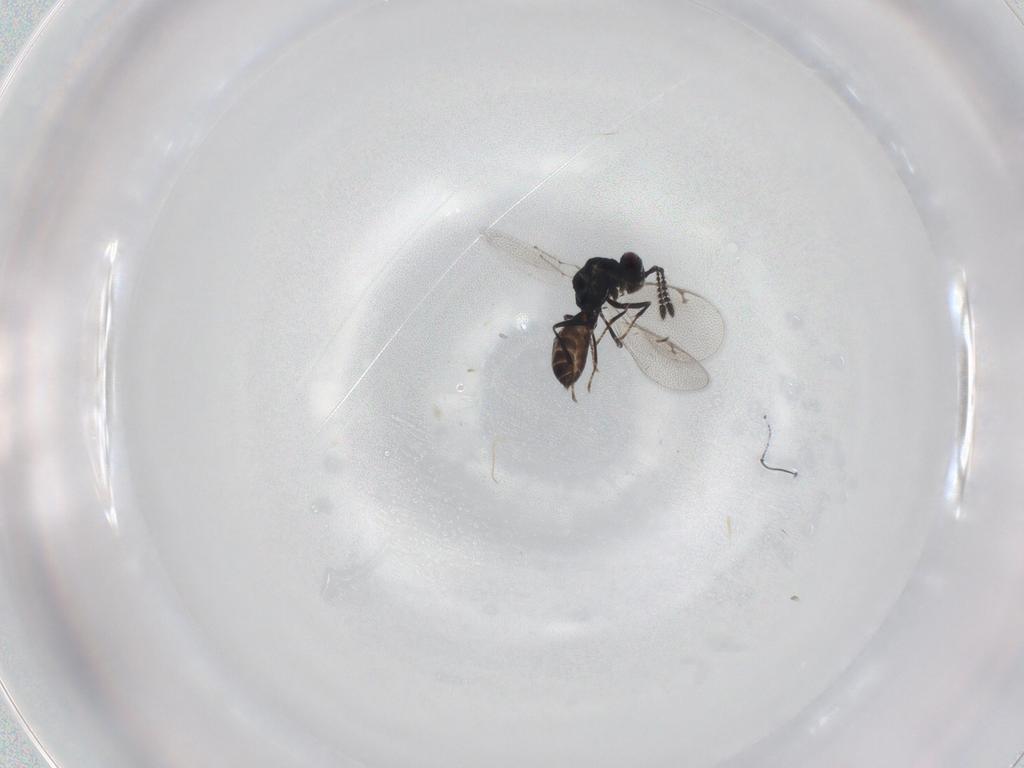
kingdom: Animalia
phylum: Arthropoda
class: Insecta
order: Hymenoptera
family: Pteromalidae
